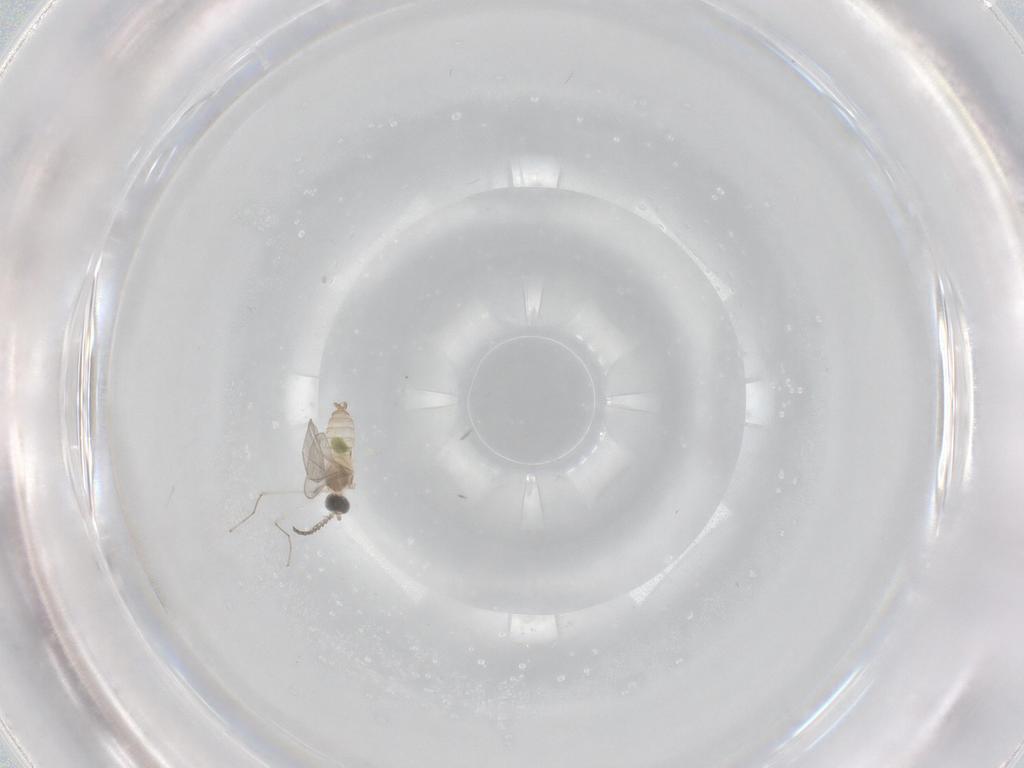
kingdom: Animalia
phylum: Arthropoda
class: Insecta
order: Diptera
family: Cecidomyiidae
